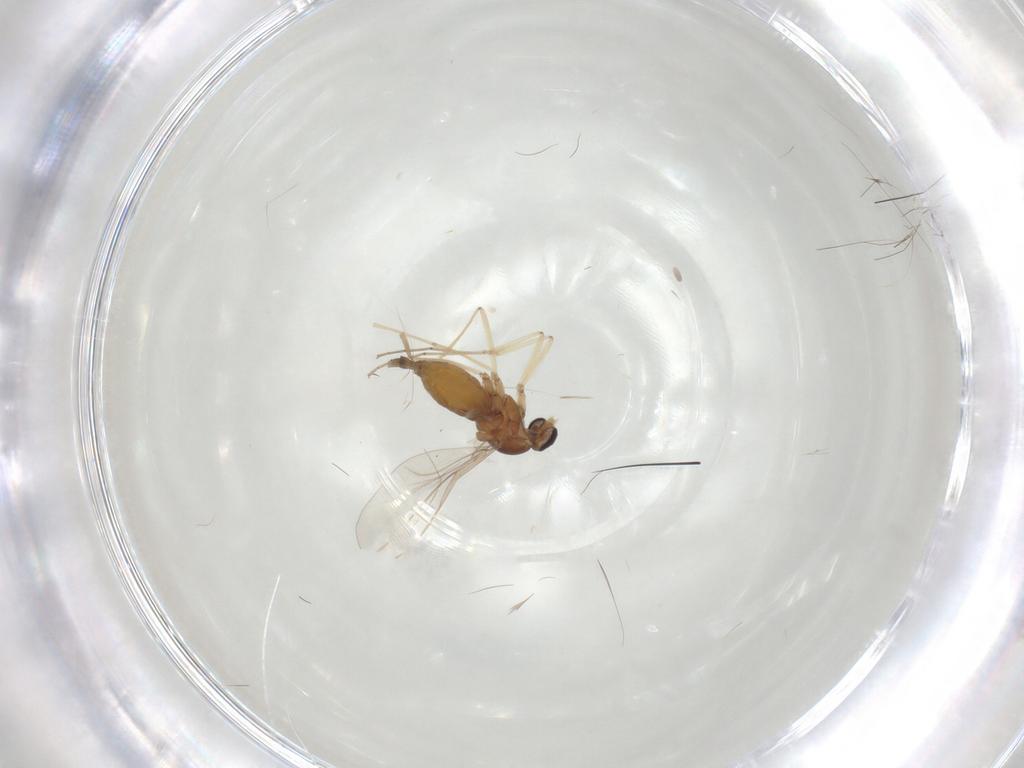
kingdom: Animalia
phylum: Arthropoda
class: Insecta
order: Diptera
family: Cecidomyiidae
